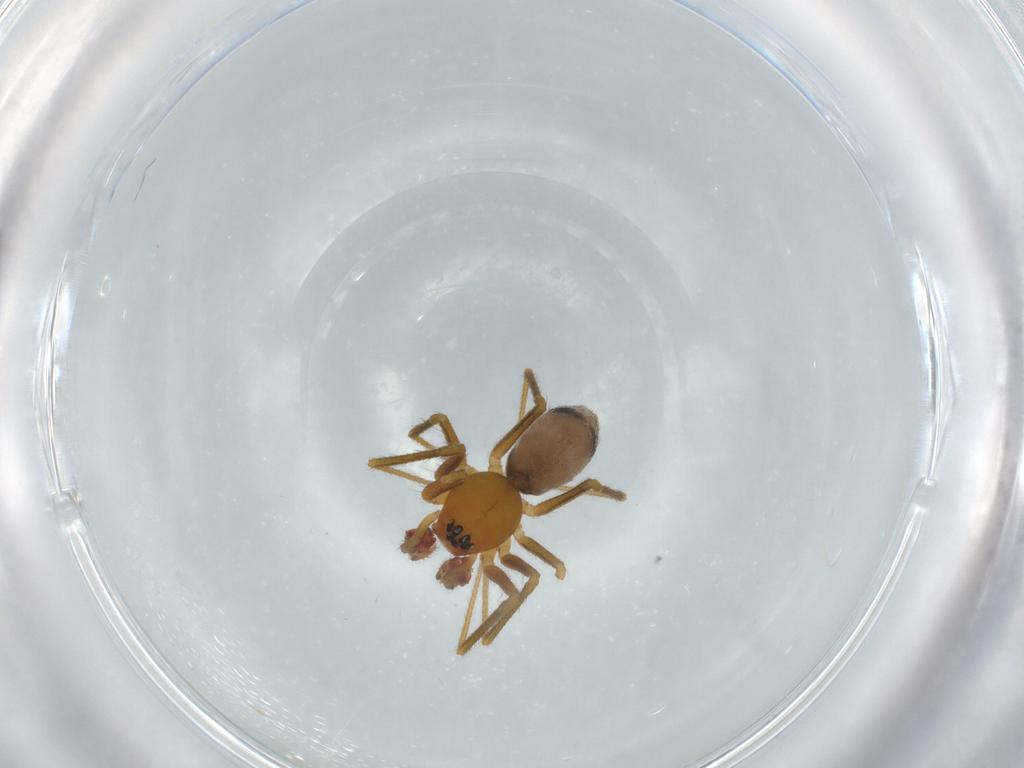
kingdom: Animalia
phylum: Arthropoda
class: Arachnida
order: Araneae
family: Linyphiidae
